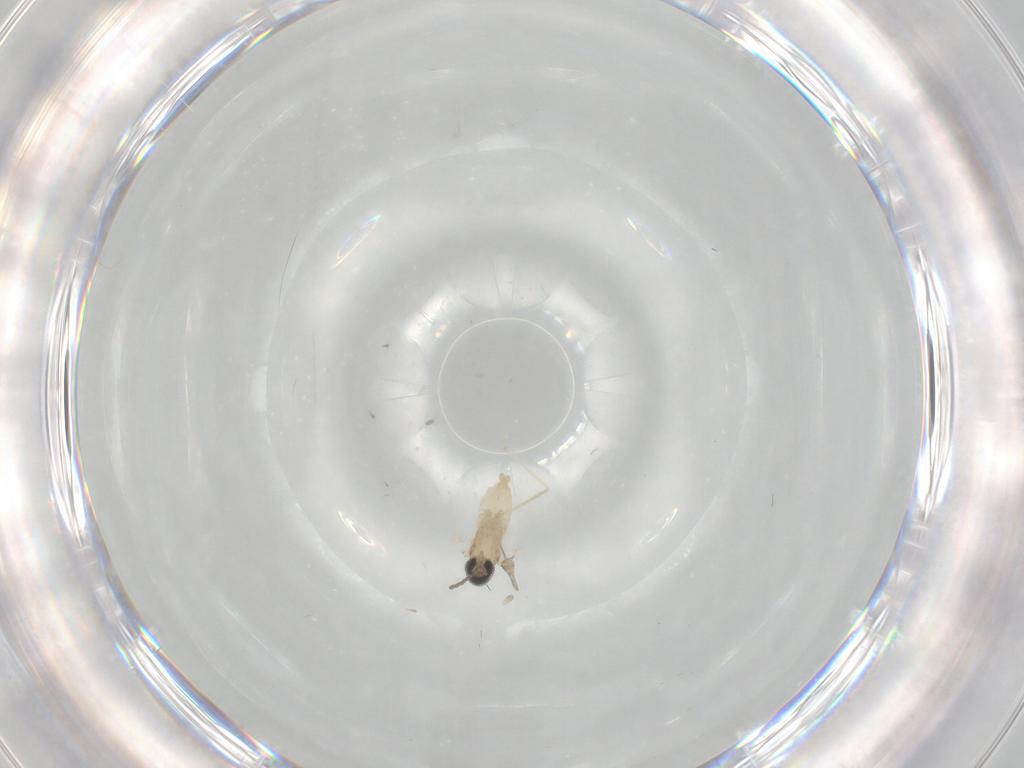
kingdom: Animalia
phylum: Arthropoda
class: Insecta
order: Diptera
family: Cecidomyiidae
